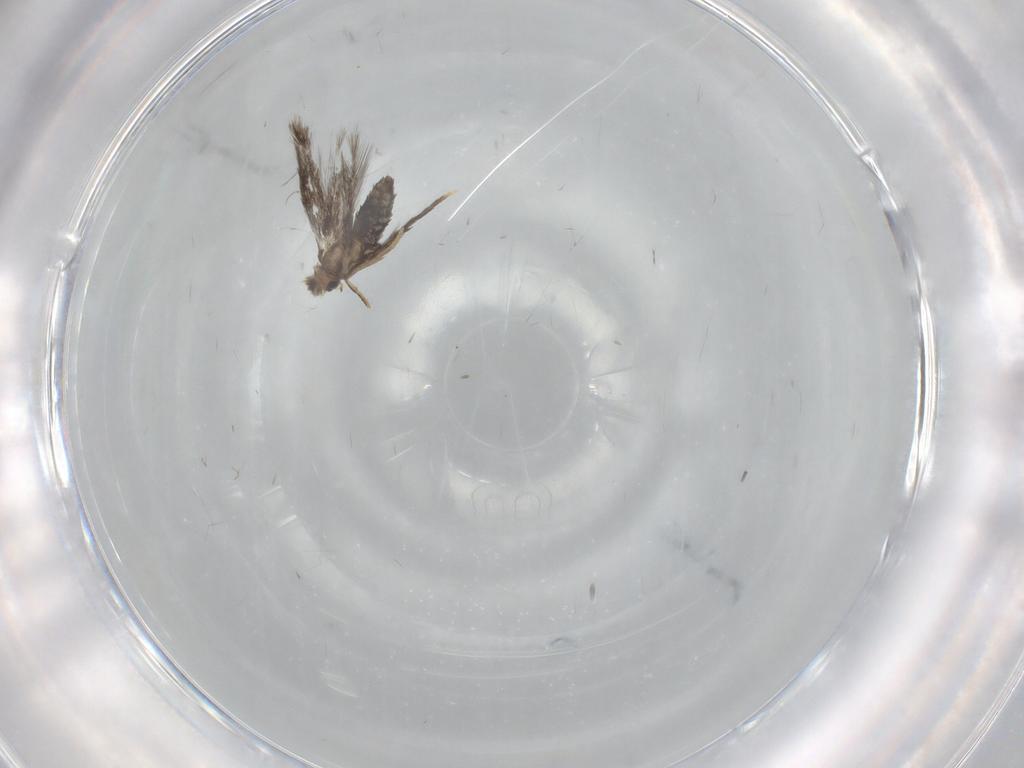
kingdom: Animalia
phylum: Arthropoda
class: Insecta
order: Lepidoptera
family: Nepticulidae
